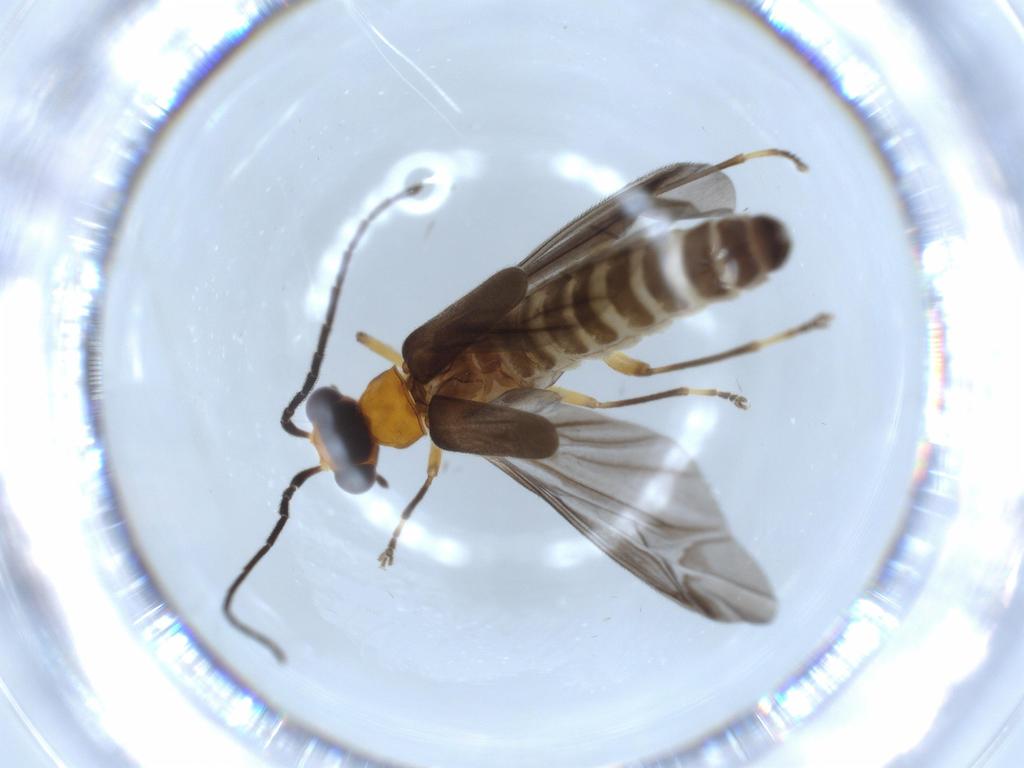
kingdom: Animalia
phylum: Arthropoda
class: Insecta
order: Coleoptera
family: Cantharidae
